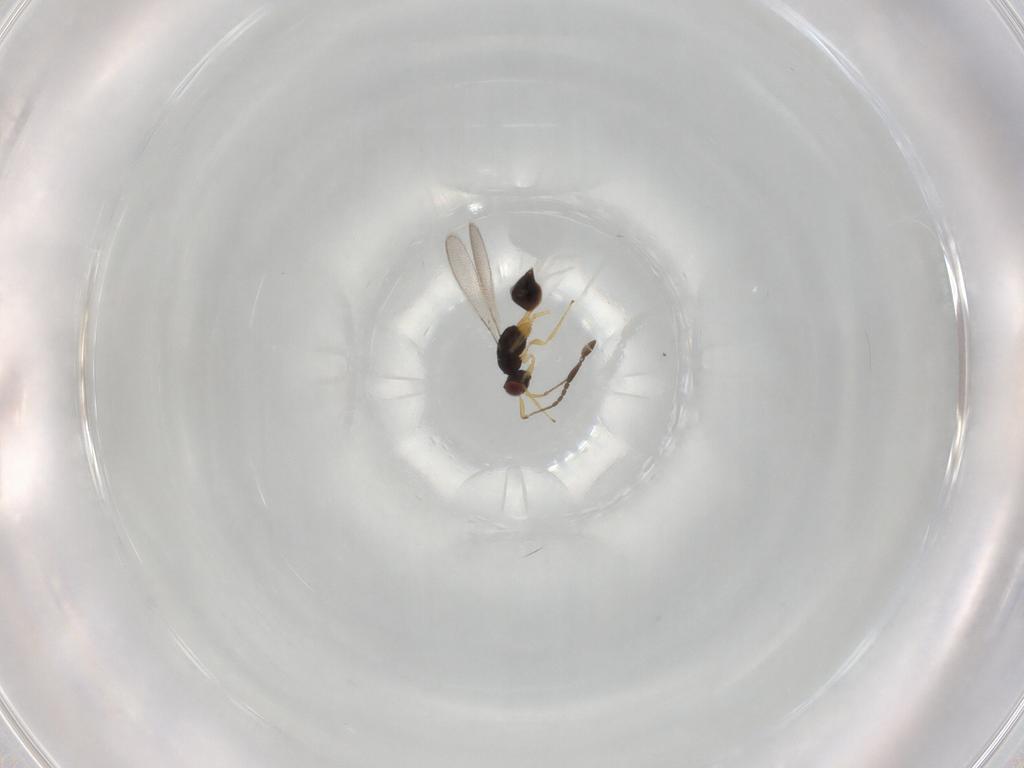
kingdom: Animalia
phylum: Arthropoda
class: Insecta
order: Hymenoptera
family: Mymaridae
